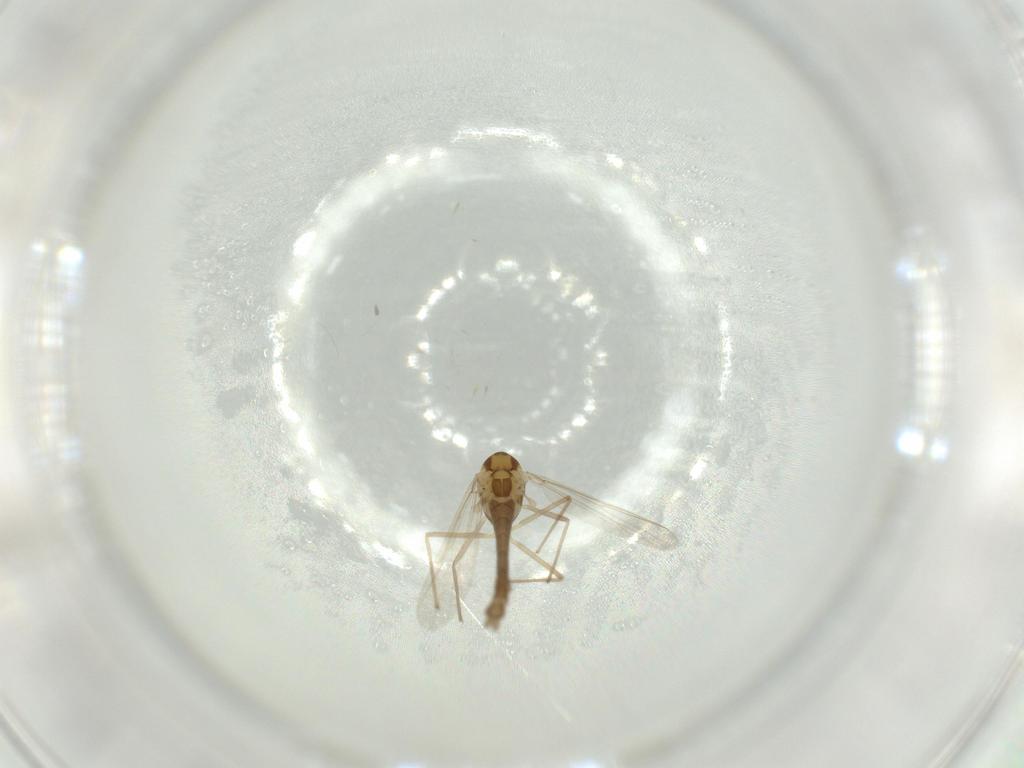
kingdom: Animalia
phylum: Arthropoda
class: Insecta
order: Diptera
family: Chironomidae
